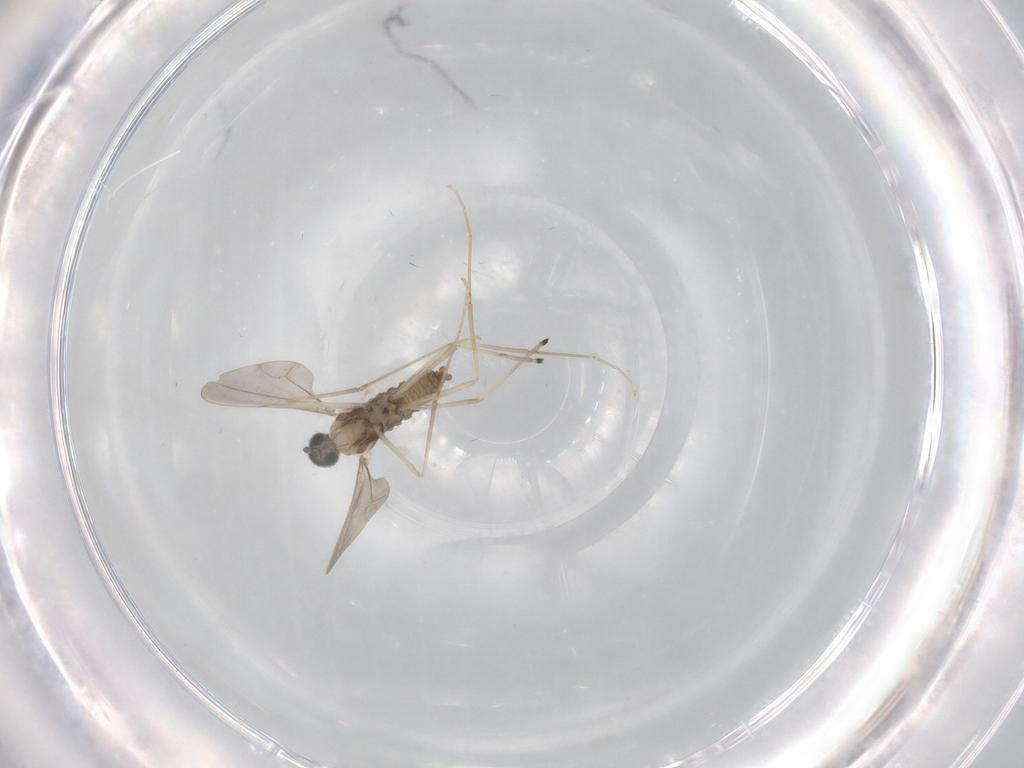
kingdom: Animalia
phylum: Arthropoda
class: Insecta
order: Diptera
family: Cecidomyiidae
